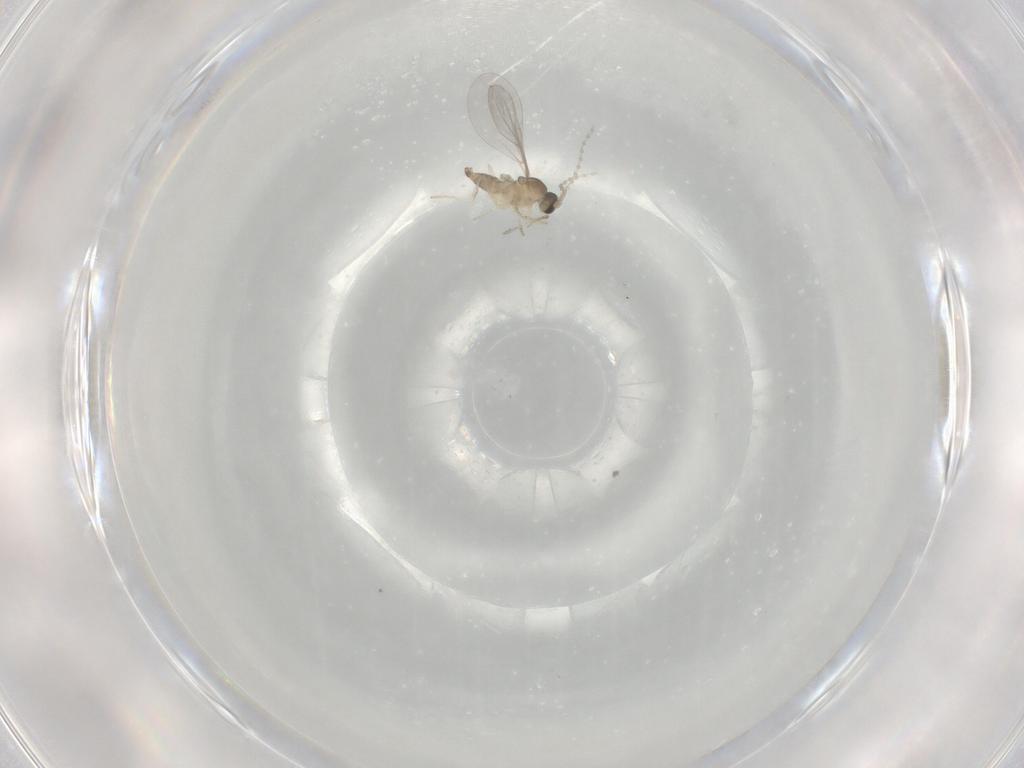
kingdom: Animalia
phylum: Arthropoda
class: Insecta
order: Diptera
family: Cecidomyiidae
